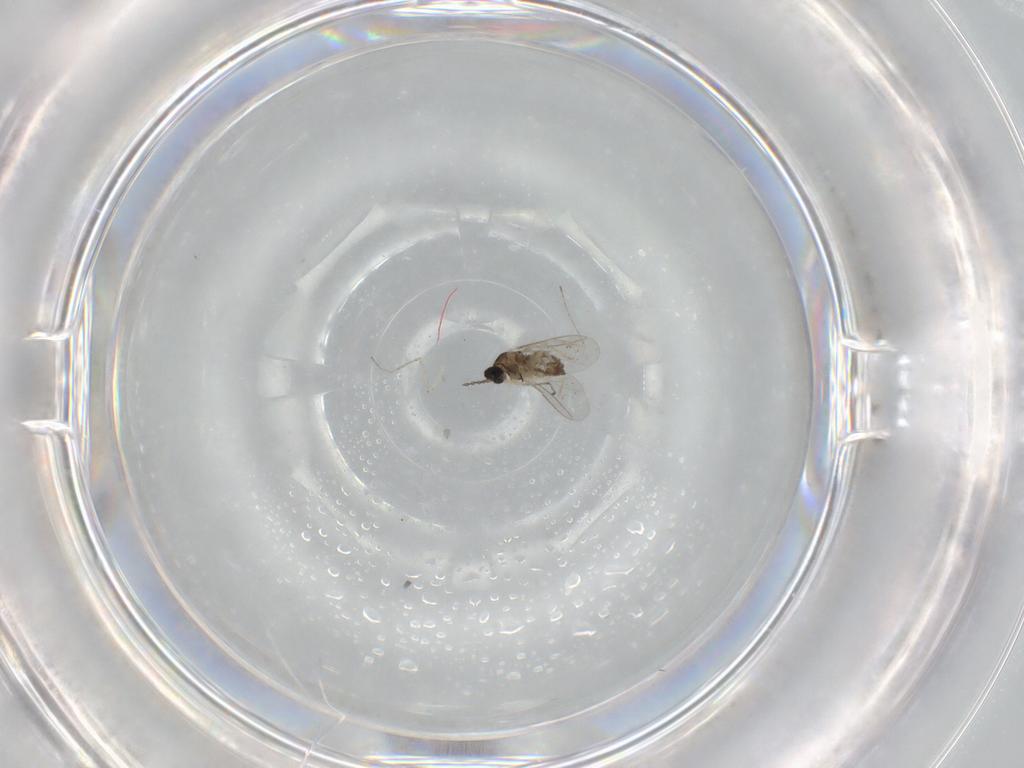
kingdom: Animalia
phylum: Arthropoda
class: Insecta
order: Diptera
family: Cecidomyiidae
